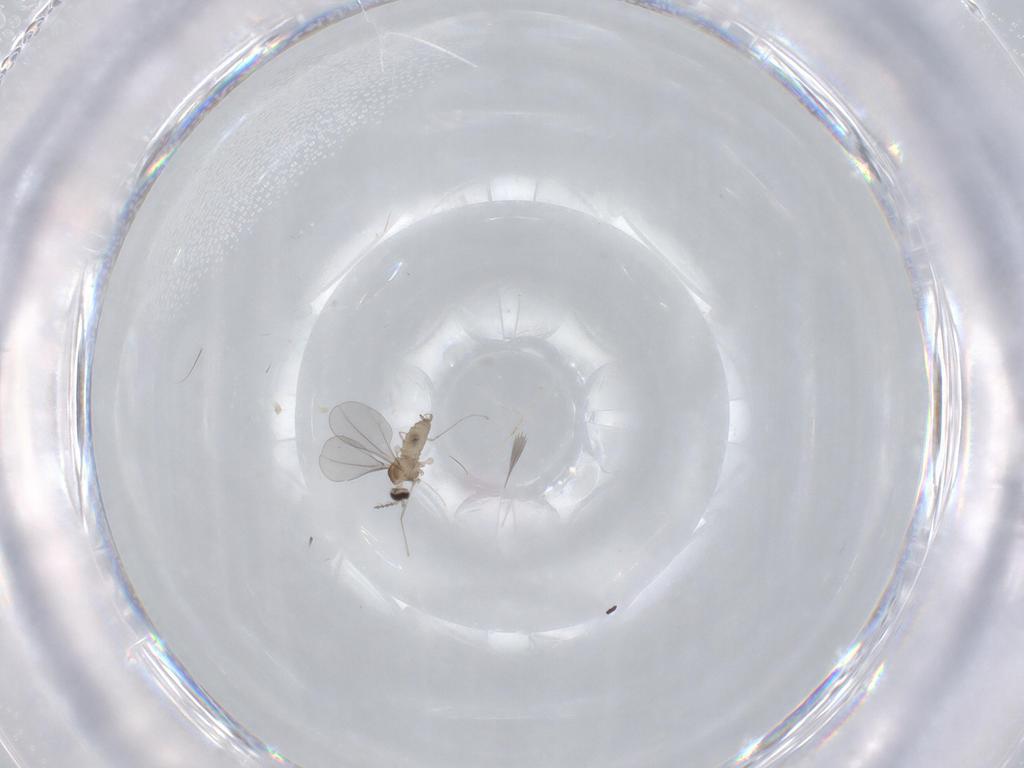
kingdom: Animalia
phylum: Arthropoda
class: Insecta
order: Diptera
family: Cecidomyiidae
